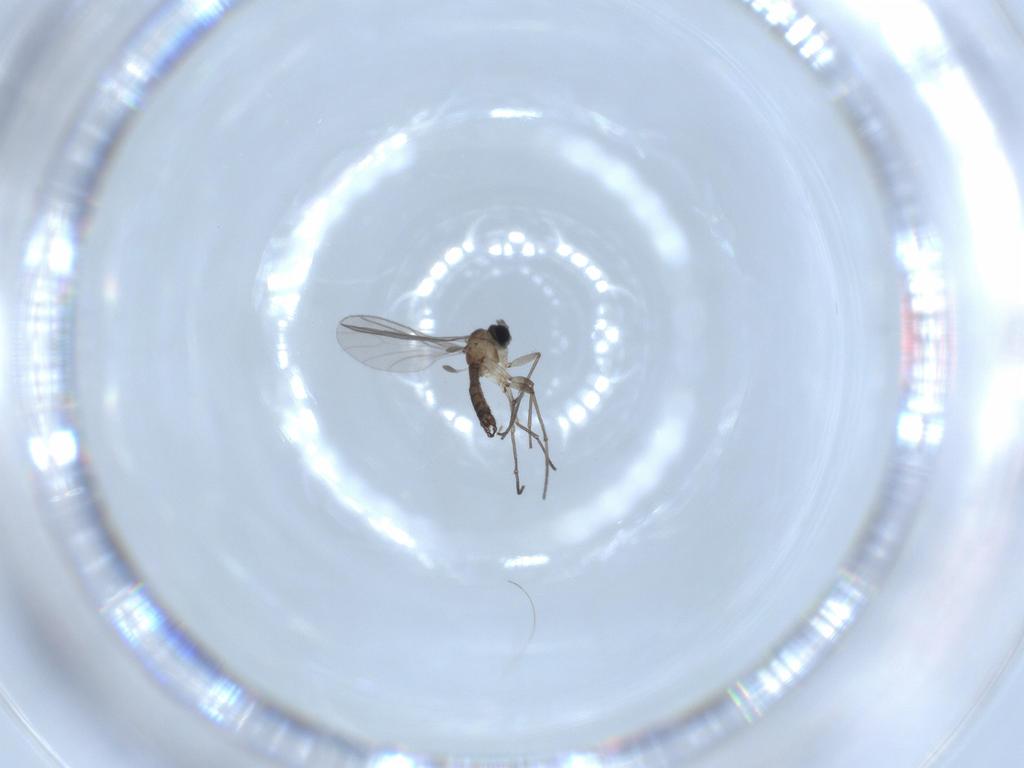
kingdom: Animalia
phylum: Arthropoda
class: Insecta
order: Diptera
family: Sciaridae
